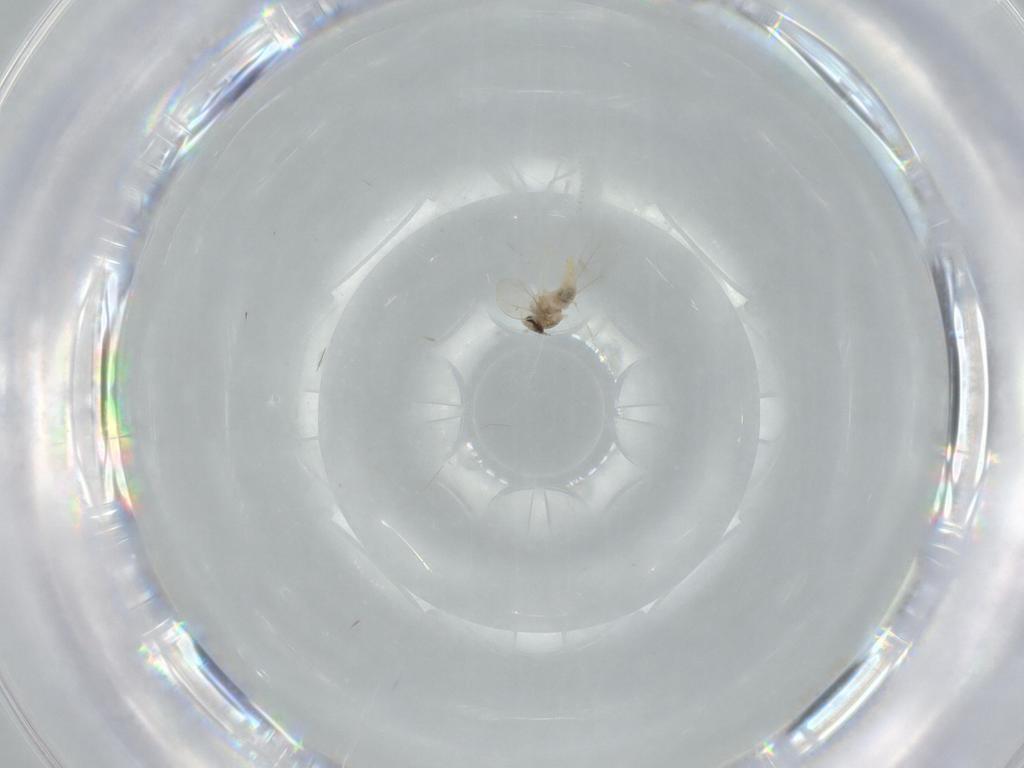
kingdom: Animalia
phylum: Arthropoda
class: Insecta
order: Diptera
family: Cecidomyiidae
